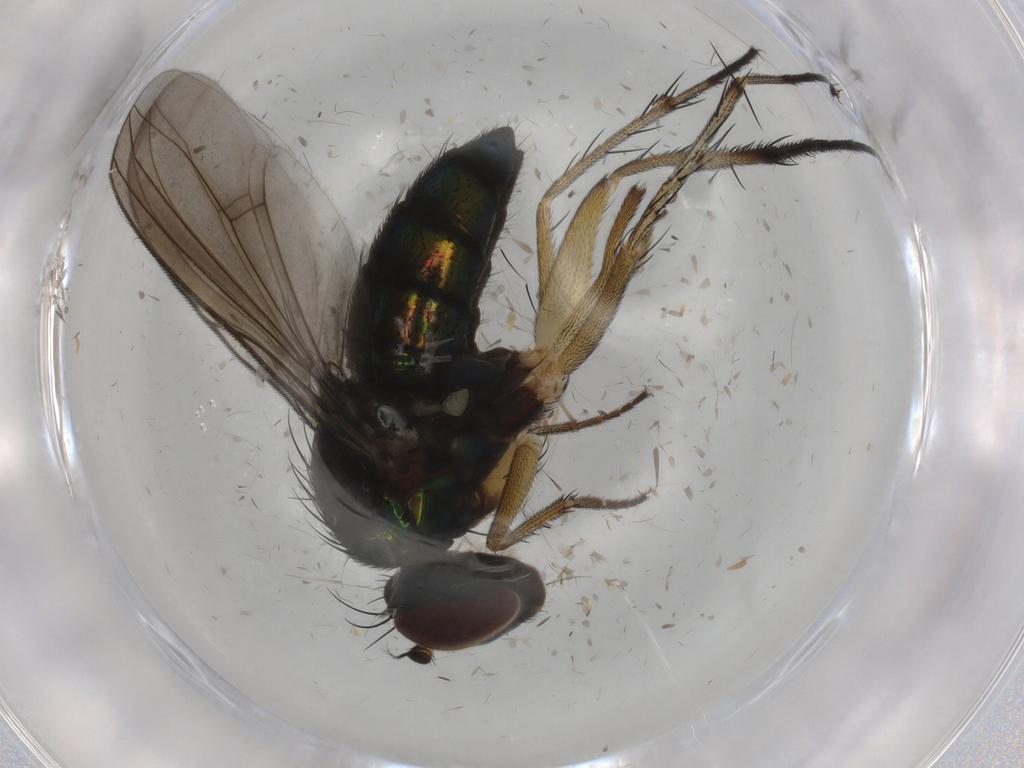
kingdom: Animalia
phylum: Arthropoda
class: Insecta
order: Diptera
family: Dolichopodidae
